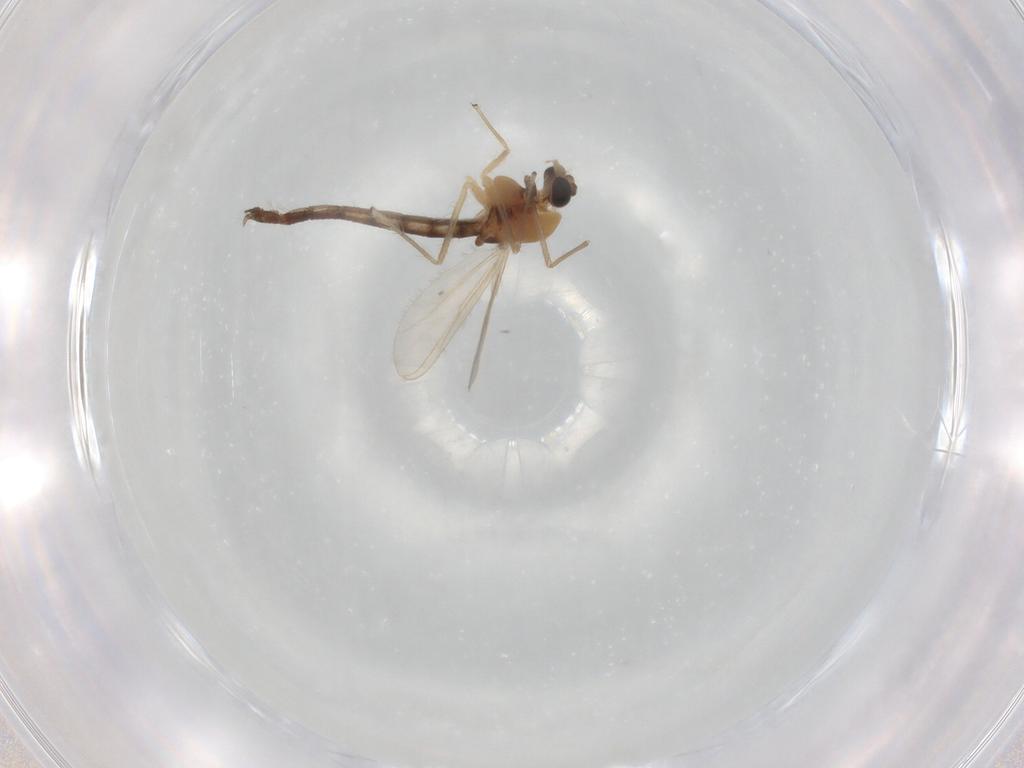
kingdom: Animalia
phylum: Arthropoda
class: Insecta
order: Diptera
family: Chironomidae
